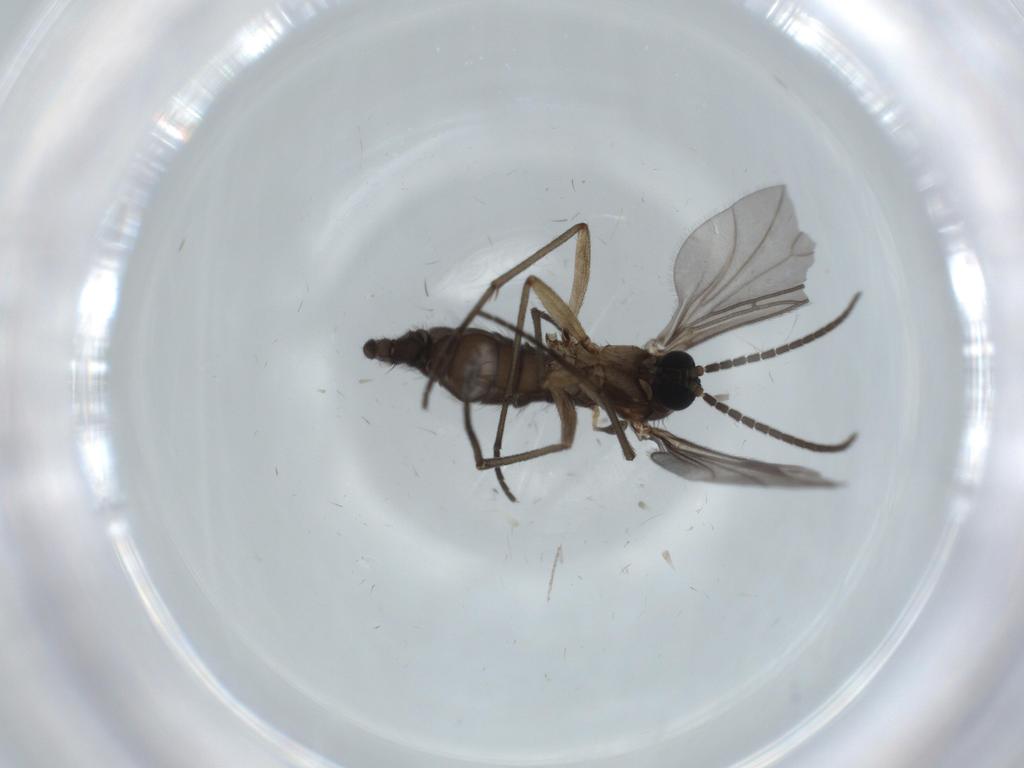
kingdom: Animalia
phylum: Arthropoda
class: Insecta
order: Diptera
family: Sciaridae
